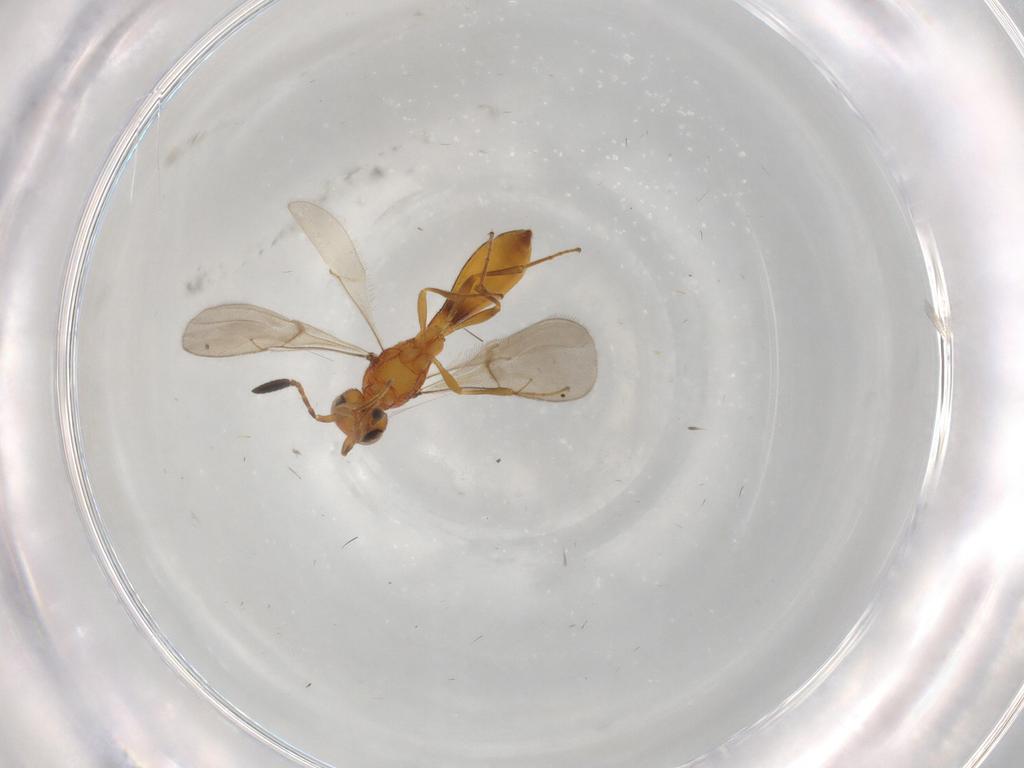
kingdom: Animalia
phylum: Arthropoda
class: Insecta
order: Hymenoptera
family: Scelionidae
